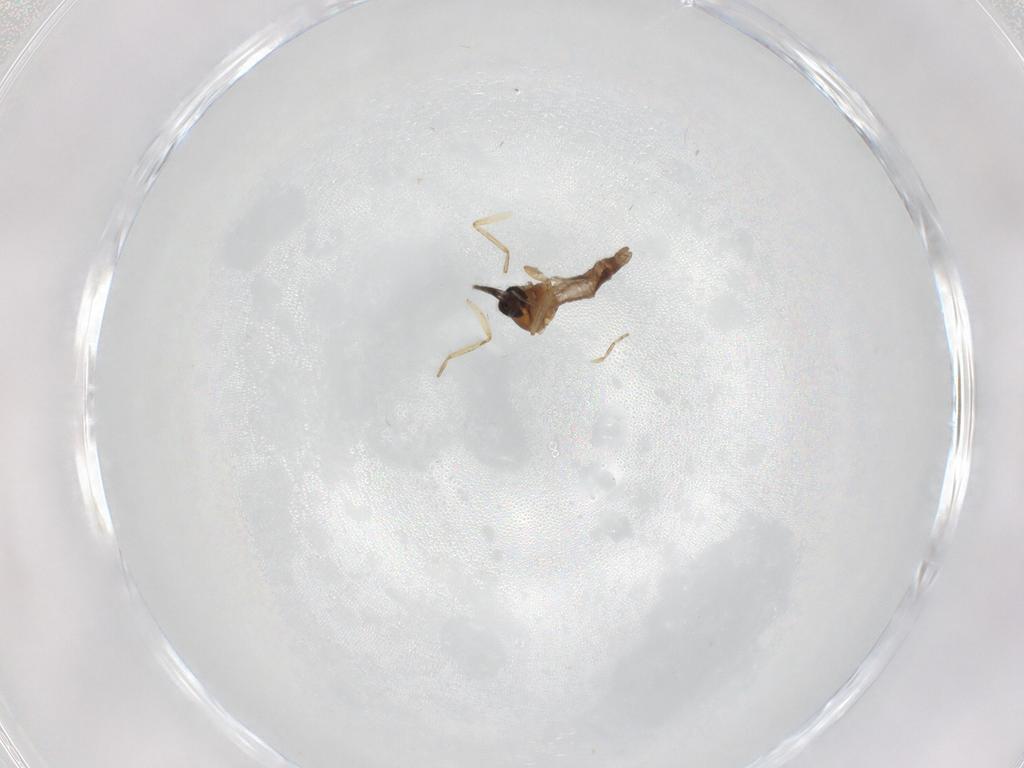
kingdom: Animalia
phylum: Arthropoda
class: Insecta
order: Diptera
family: Ceratopogonidae
